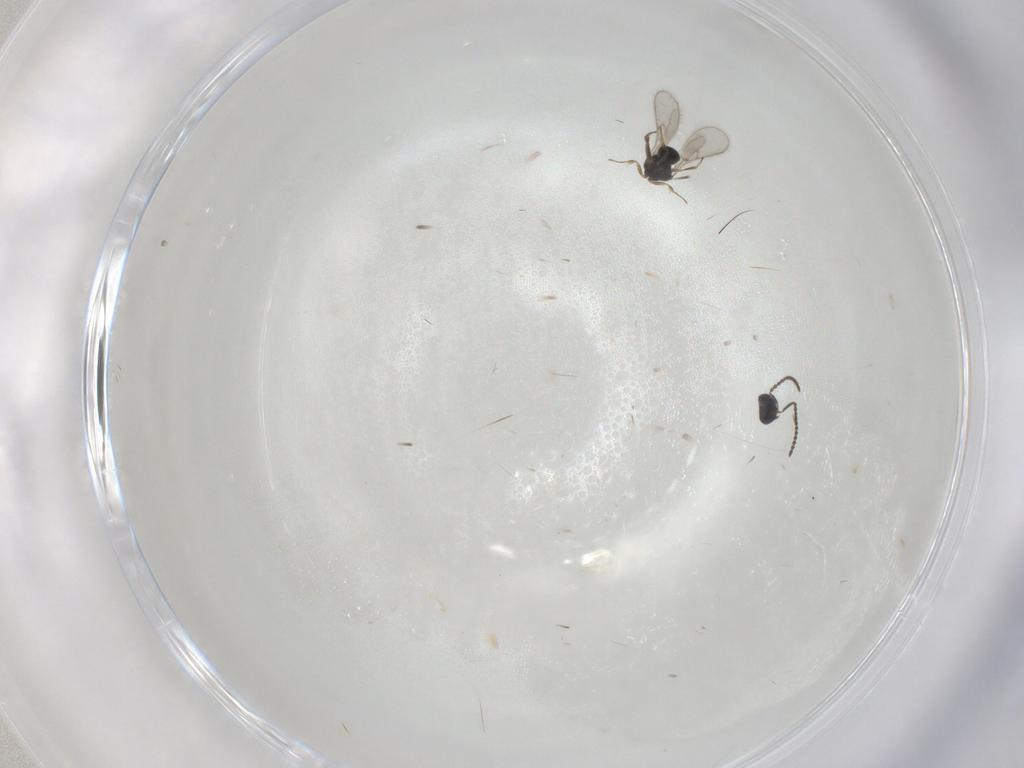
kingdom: Animalia
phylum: Arthropoda
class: Insecta
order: Hymenoptera
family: Scelionidae
